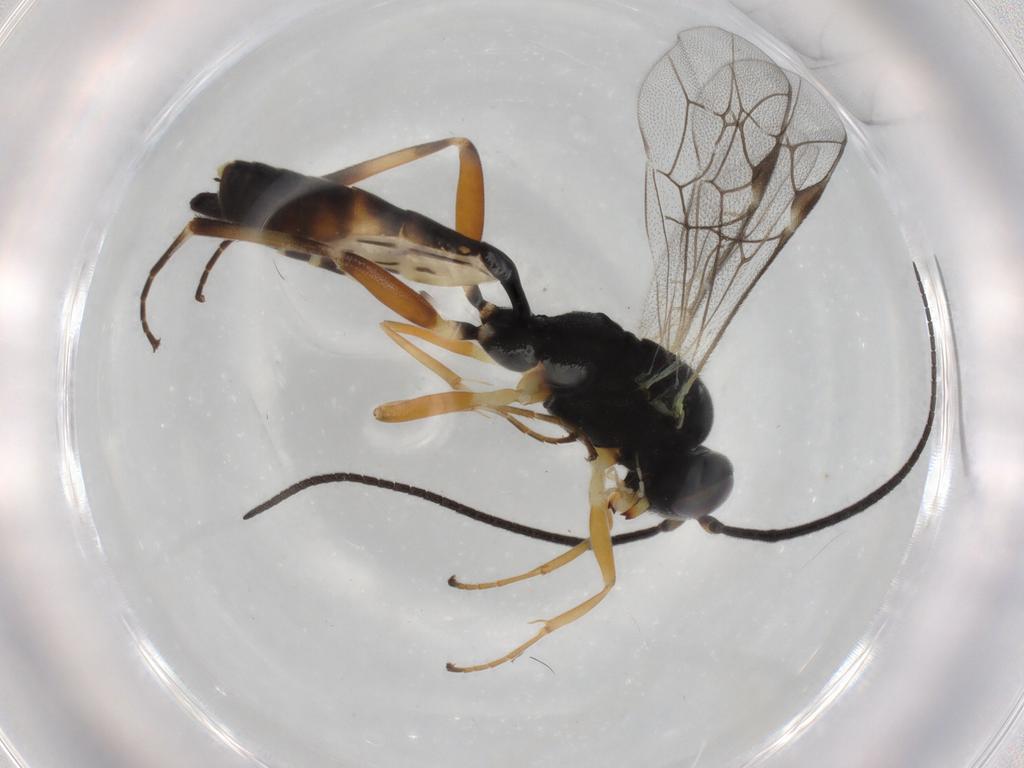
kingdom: Animalia
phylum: Arthropoda
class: Insecta
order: Hymenoptera
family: Ichneumonidae
